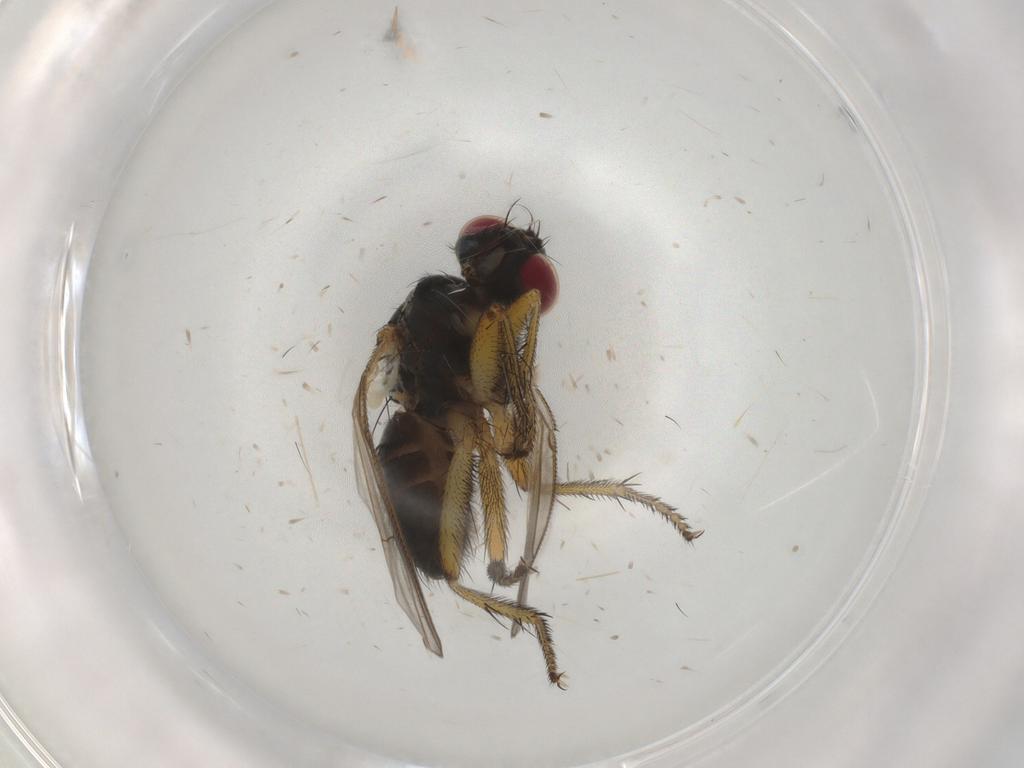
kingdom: Animalia
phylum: Arthropoda
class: Insecta
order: Diptera
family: Muscidae
